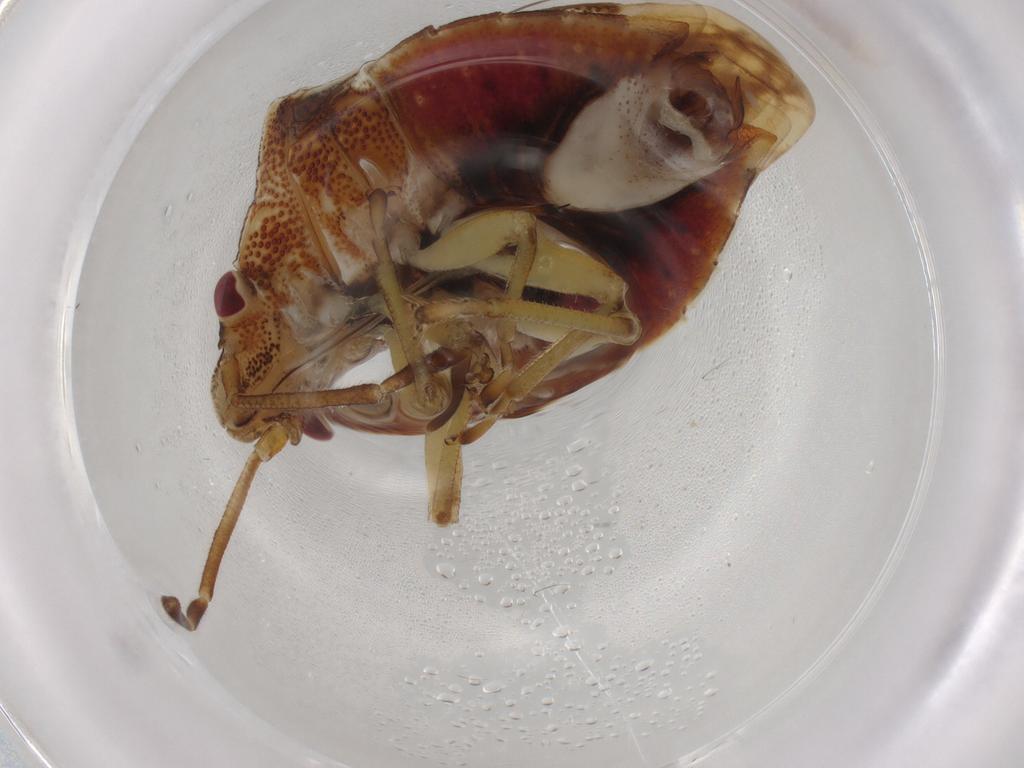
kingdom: Animalia
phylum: Arthropoda
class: Insecta
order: Hemiptera
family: Pentatomidae
